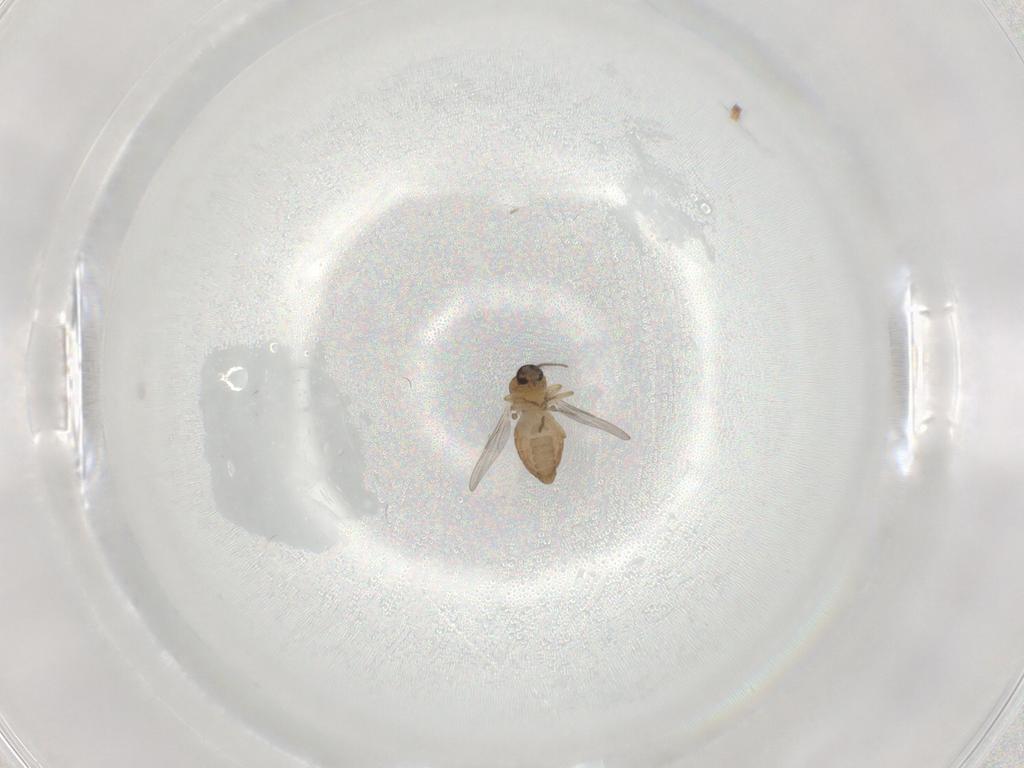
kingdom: Animalia
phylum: Arthropoda
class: Insecta
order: Diptera
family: Ceratopogonidae
